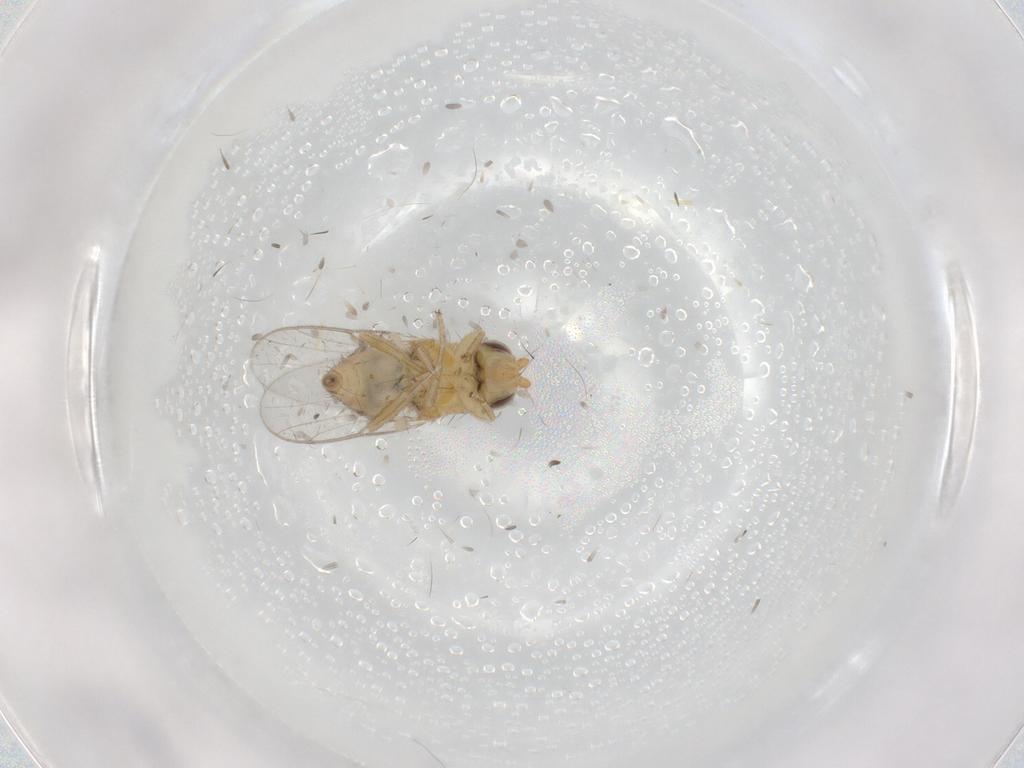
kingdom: Animalia
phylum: Arthropoda
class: Insecta
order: Diptera
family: Chloropidae
